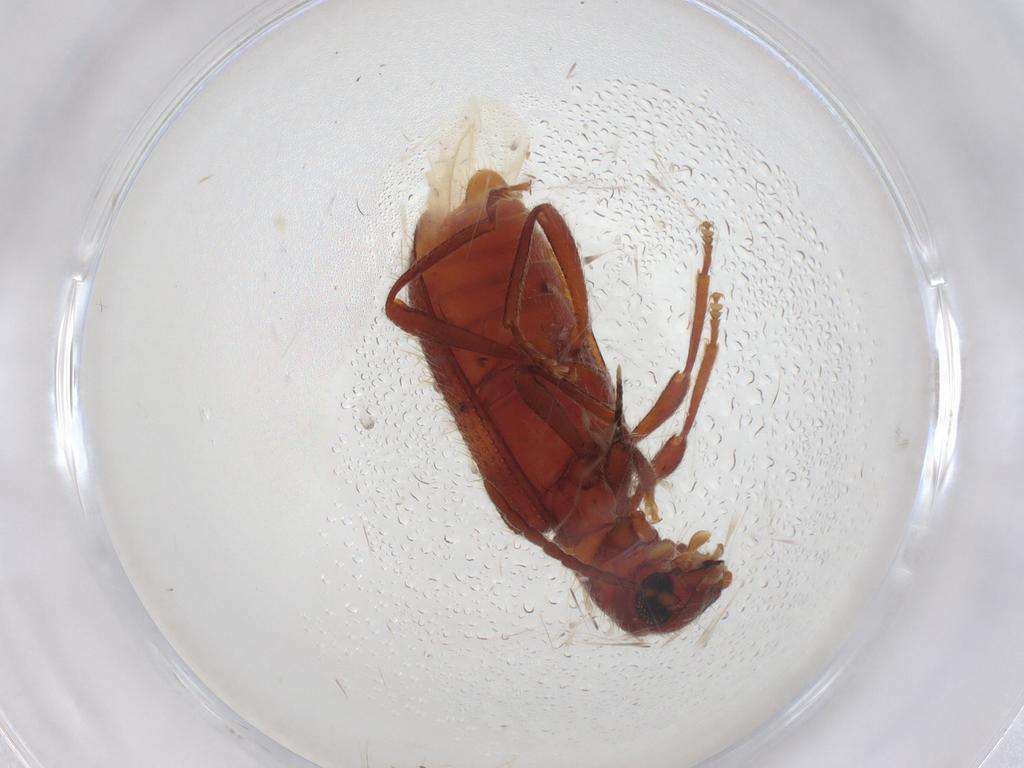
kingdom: Animalia
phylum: Arthropoda
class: Insecta
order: Coleoptera
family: Cleridae
